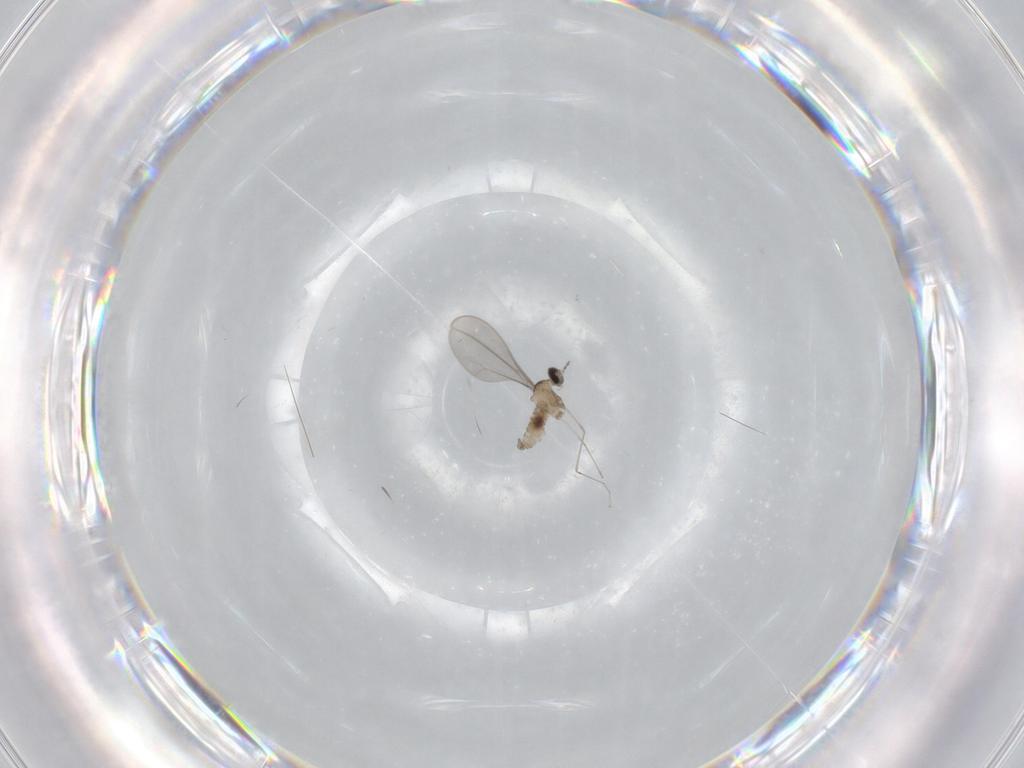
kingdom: Animalia
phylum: Arthropoda
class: Insecta
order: Diptera
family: Cecidomyiidae
